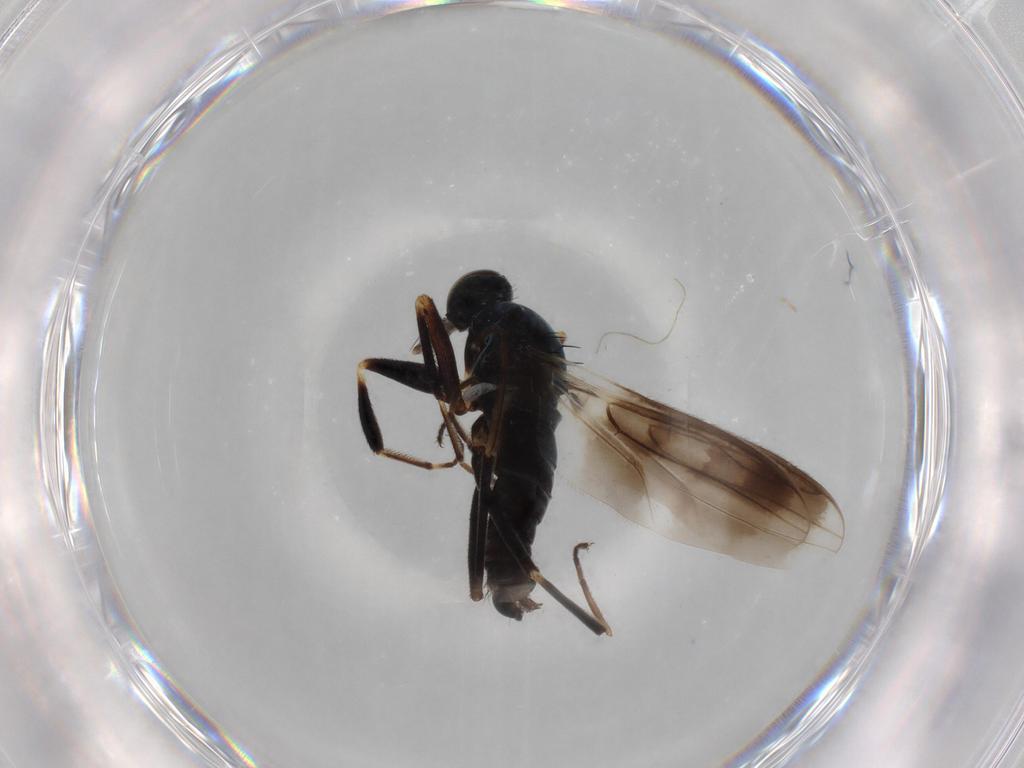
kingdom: Animalia
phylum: Arthropoda
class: Insecta
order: Diptera
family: Hybotidae
